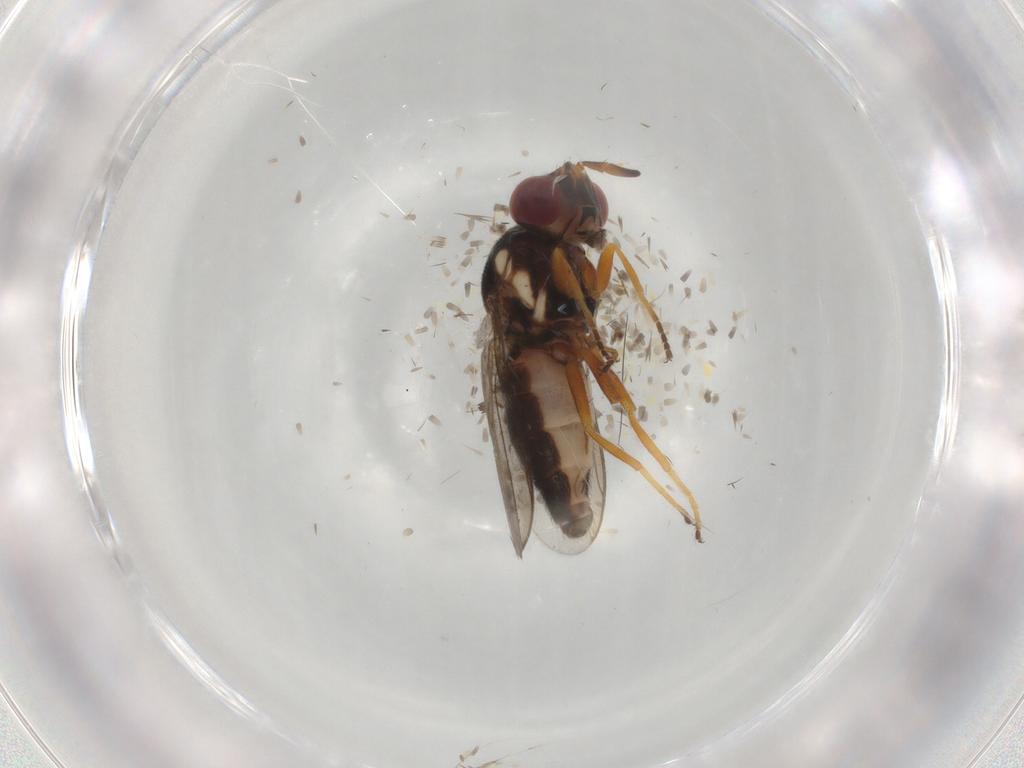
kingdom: Animalia
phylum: Arthropoda
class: Insecta
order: Diptera
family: Chloropidae
